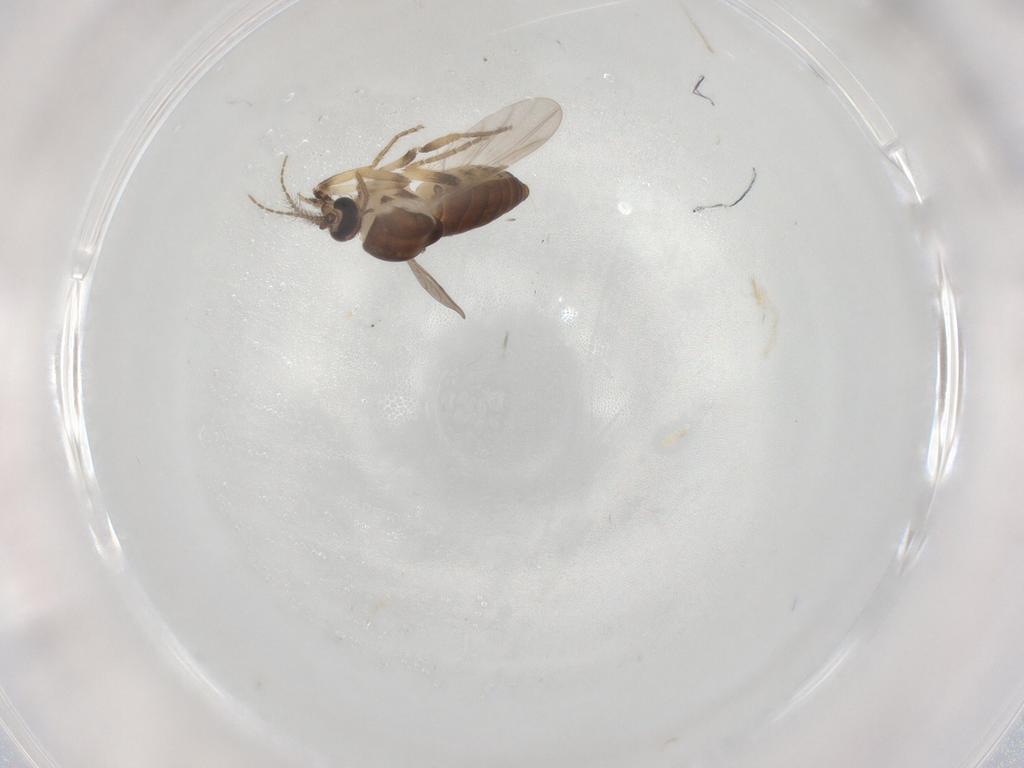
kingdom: Animalia
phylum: Arthropoda
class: Insecta
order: Diptera
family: Ceratopogonidae
